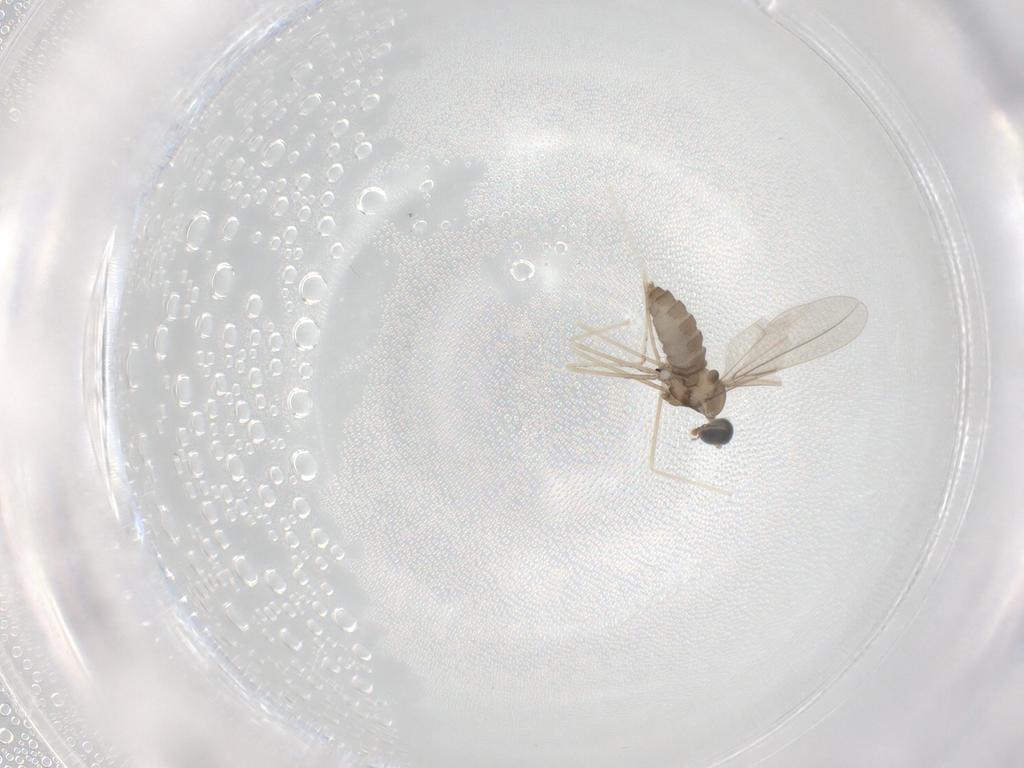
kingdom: Animalia
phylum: Arthropoda
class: Insecta
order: Diptera
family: Cecidomyiidae
